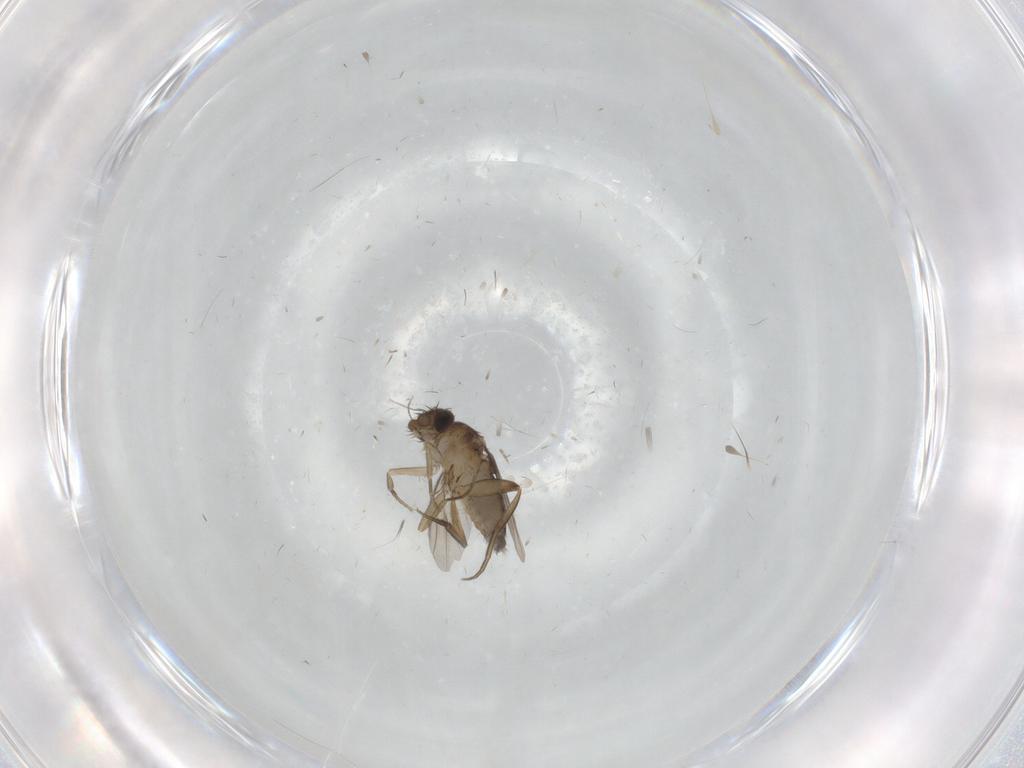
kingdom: Animalia
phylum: Arthropoda
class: Insecta
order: Diptera
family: Phoridae
